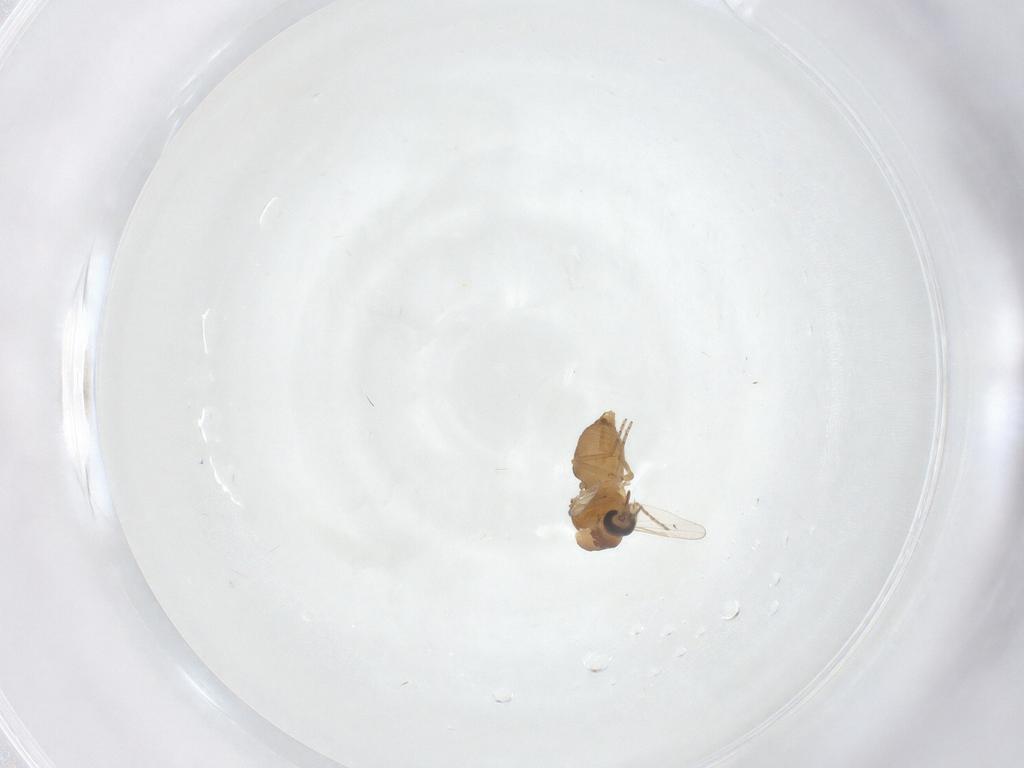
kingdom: Animalia
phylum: Arthropoda
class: Insecta
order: Diptera
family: Ceratopogonidae
